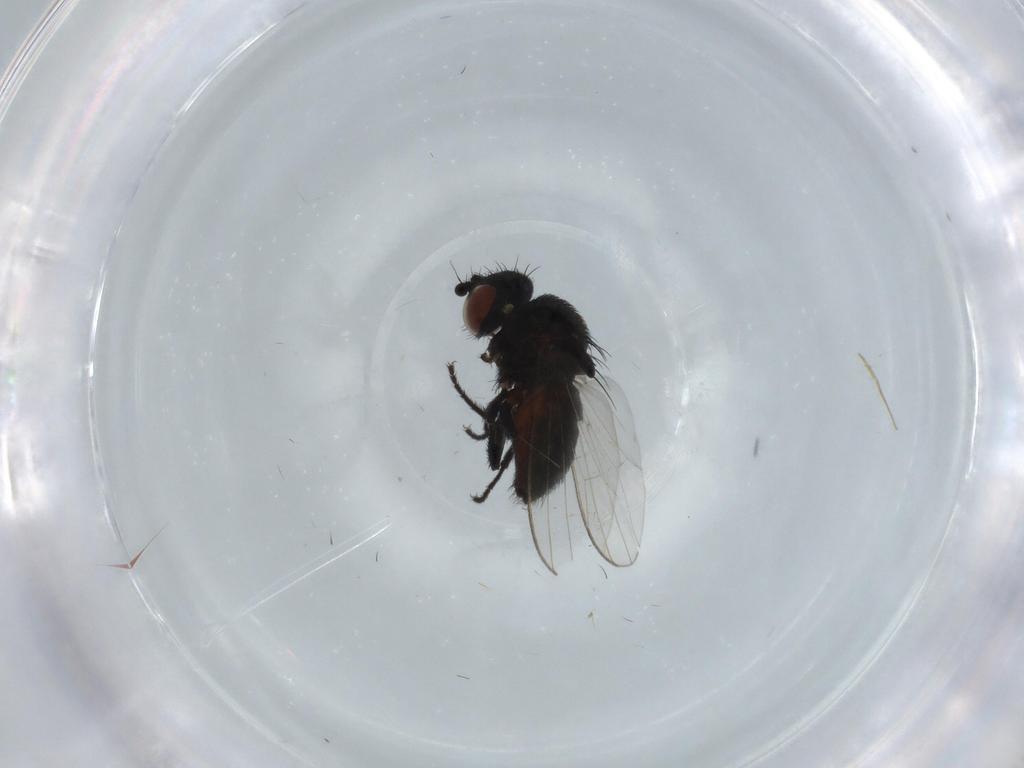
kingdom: Animalia
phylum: Arthropoda
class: Insecta
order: Diptera
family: Milichiidae
